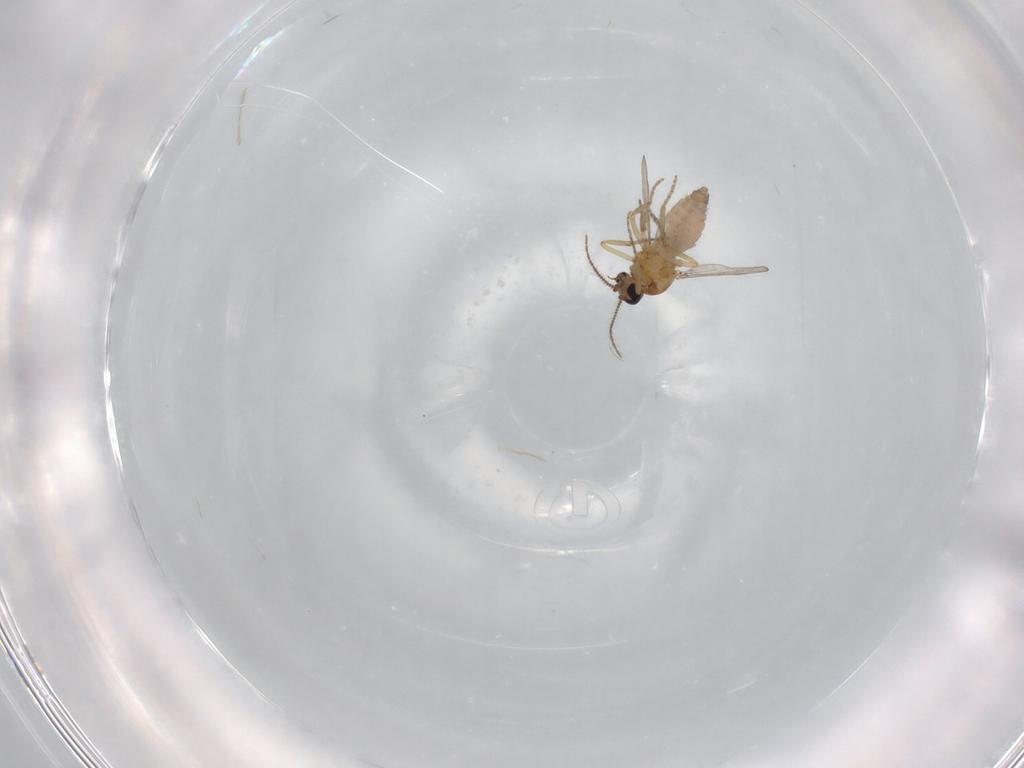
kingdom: Animalia
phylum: Arthropoda
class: Insecta
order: Diptera
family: Ceratopogonidae
